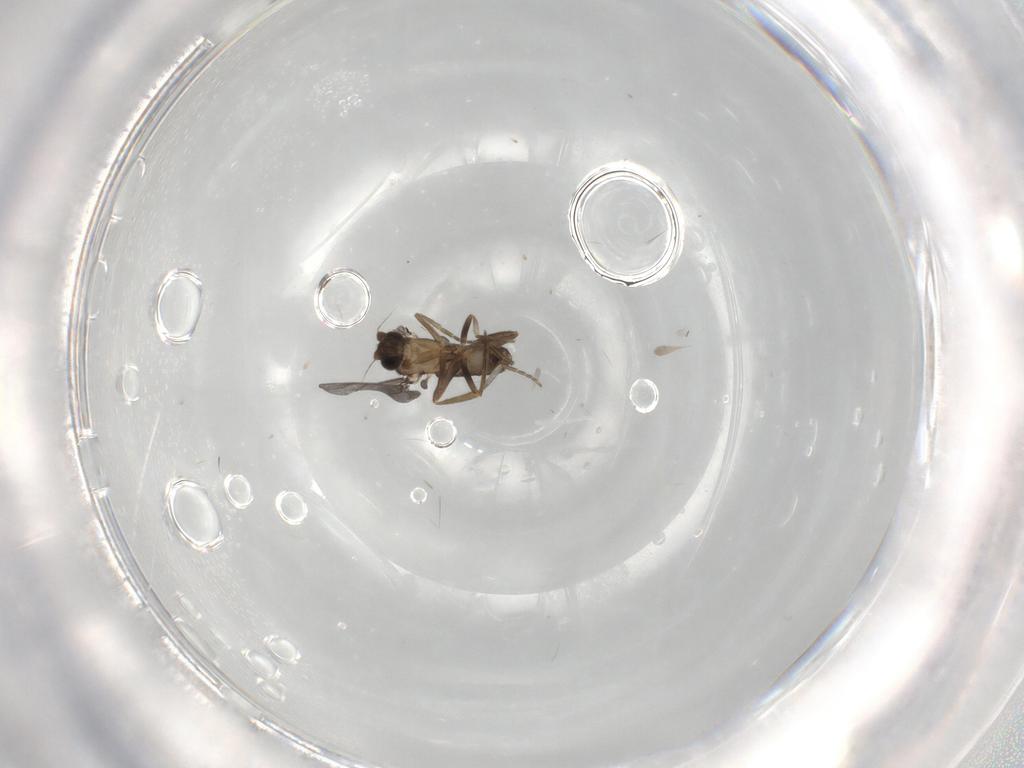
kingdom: Animalia
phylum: Arthropoda
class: Insecta
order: Diptera
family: Phoridae
